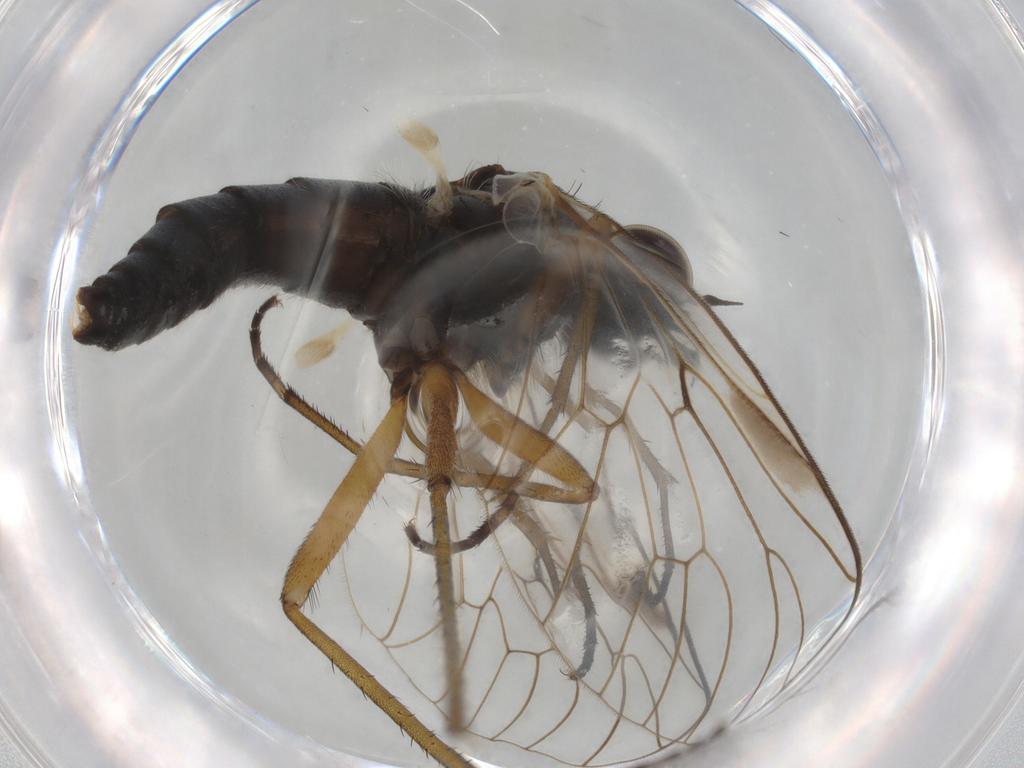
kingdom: Animalia
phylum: Arthropoda
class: Insecta
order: Diptera
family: Rhagionidae
